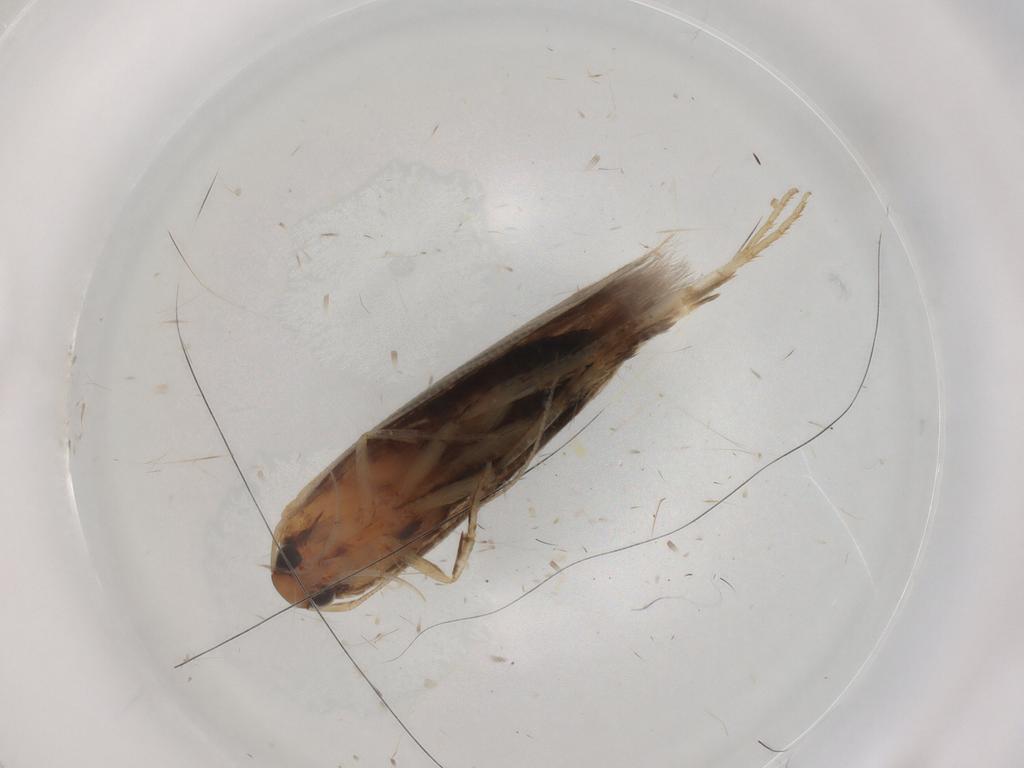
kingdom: Animalia
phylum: Arthropoda
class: Insecta
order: Lepidoptera
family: Blastobasidae
